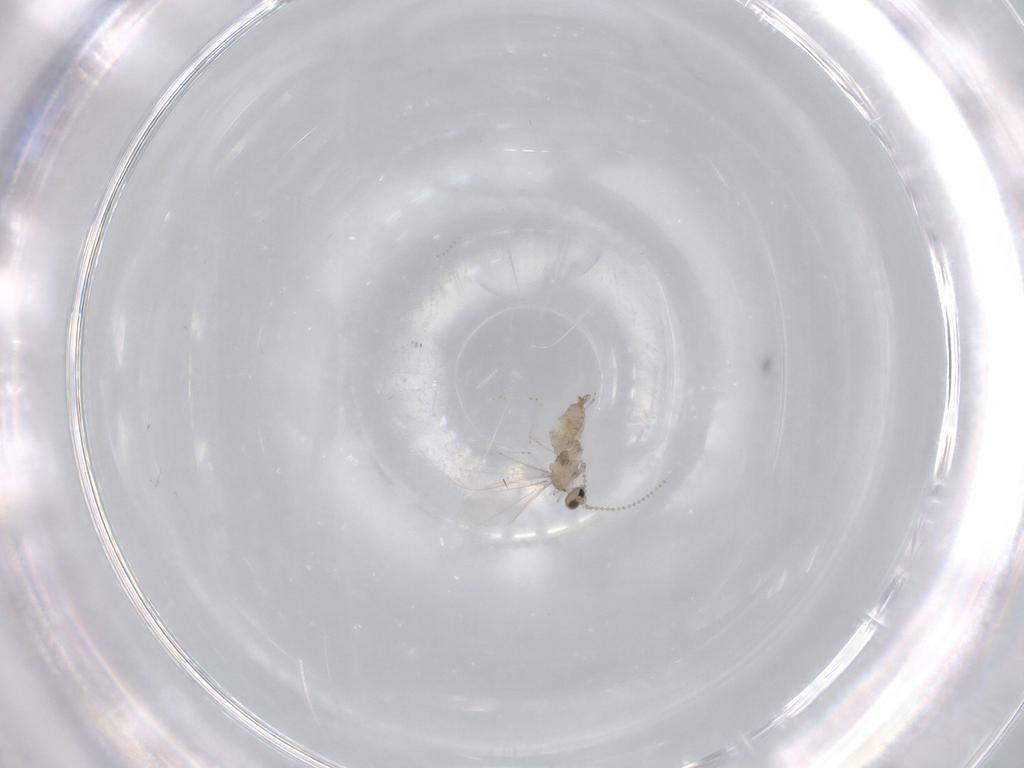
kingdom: Animalia
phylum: Arthropoda
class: Insecta
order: Diptera
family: Cecidomyiidae
